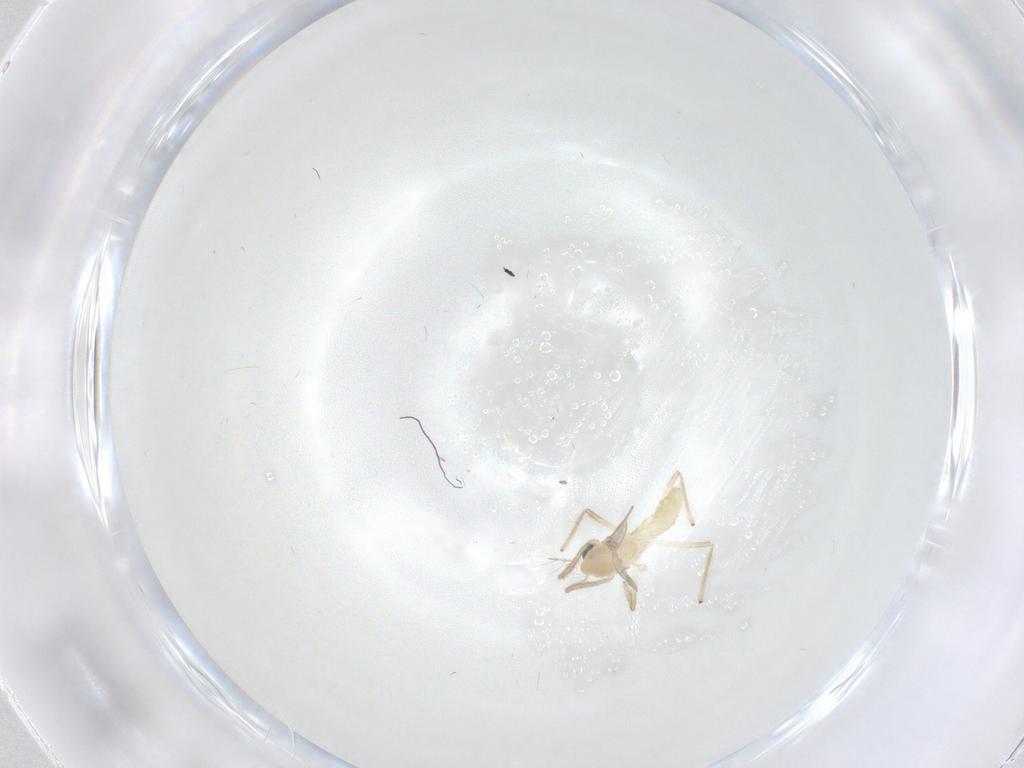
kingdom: Animalia
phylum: Arthropoda
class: Insecta
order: Diptera
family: Chironomidae
